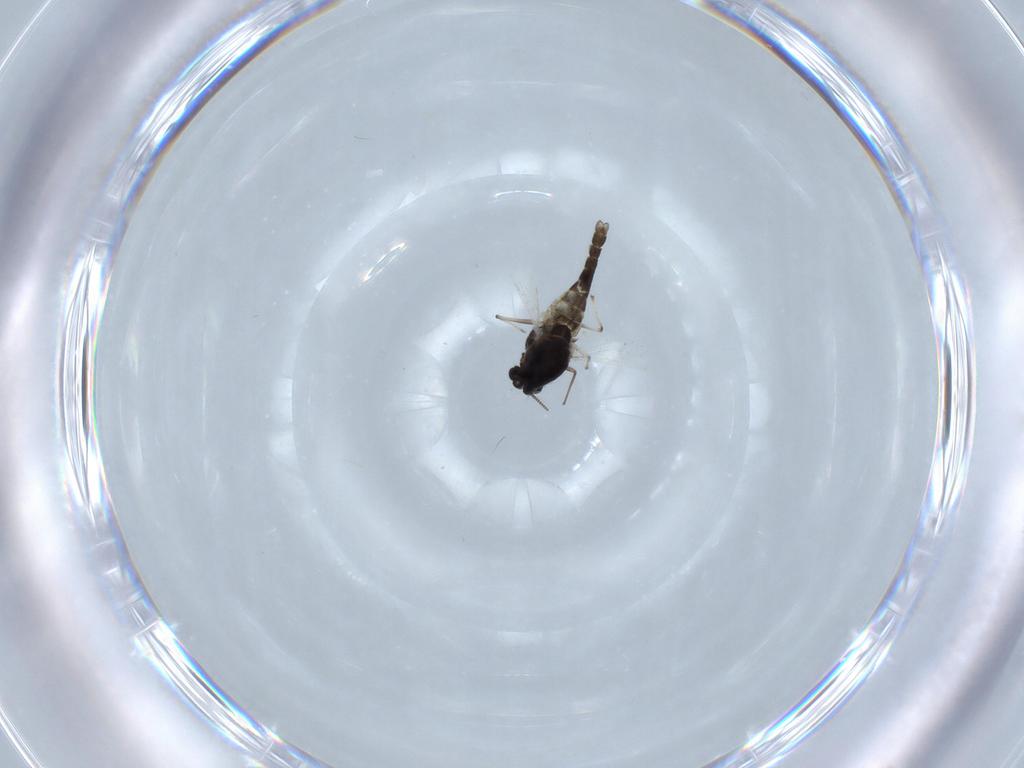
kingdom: Animalia
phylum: Arthropoda
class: Insecta
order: Diptera
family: Chironomidae
